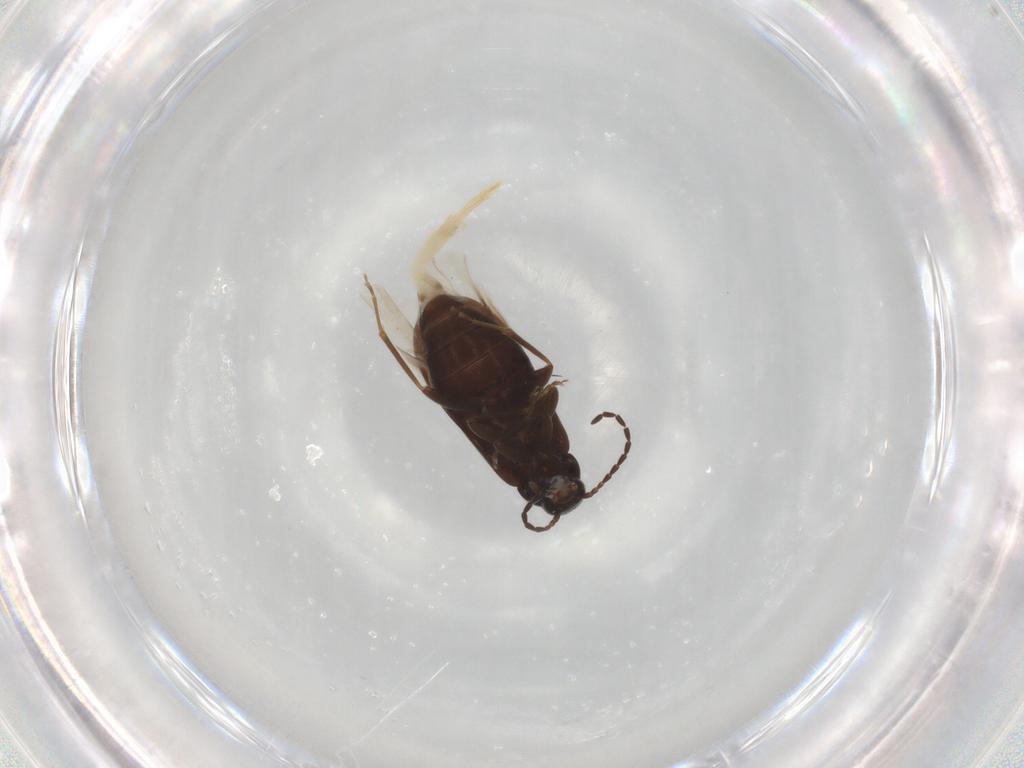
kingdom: Animalia
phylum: Arthropoda
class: Insecta
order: Coleoptera
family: Scraptiidae
